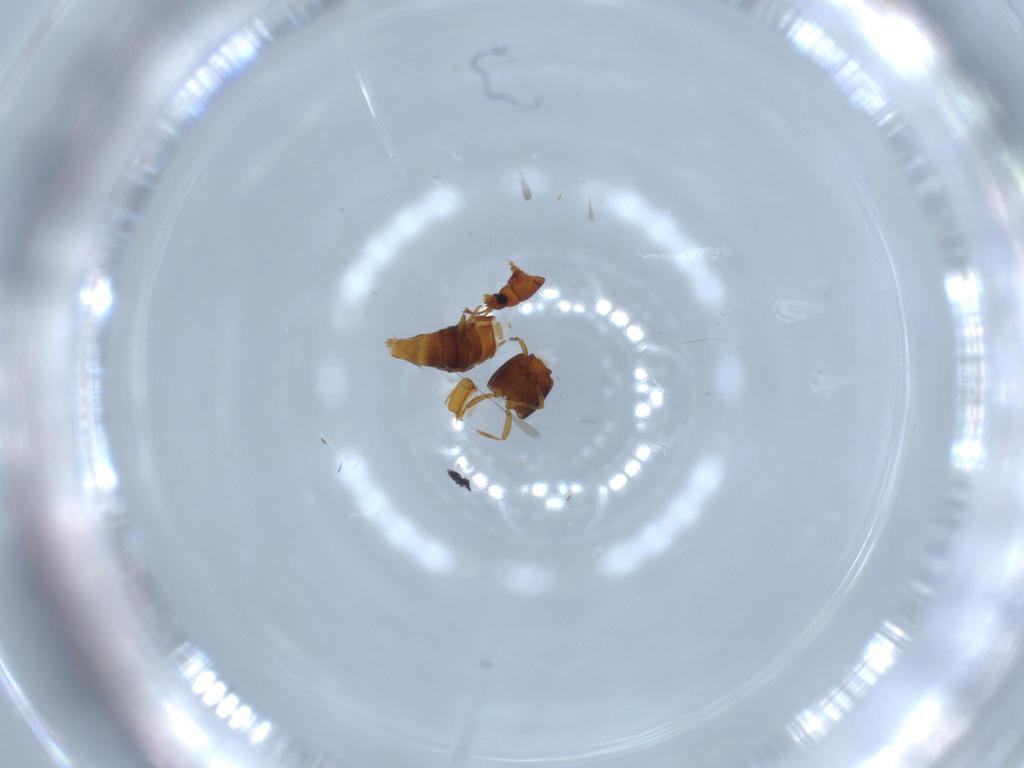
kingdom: Animalia
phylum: Arthropoda
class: Insecta
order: Coleoptera
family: Staphylinidae
